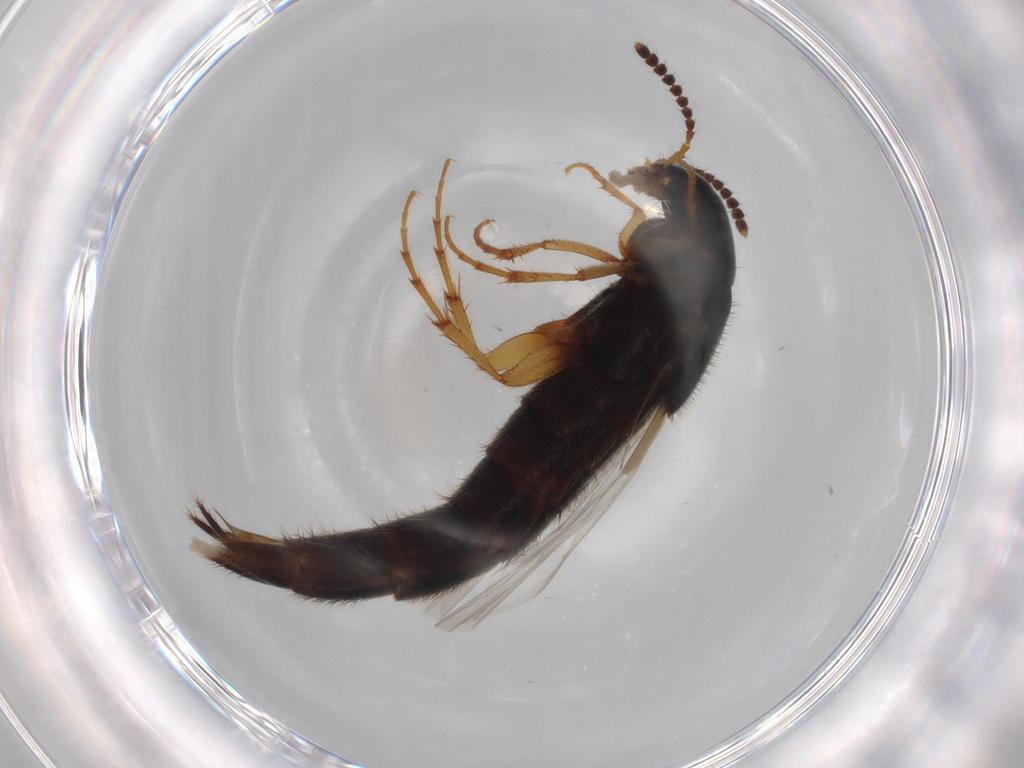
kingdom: Animalia
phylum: Arthropoda
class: Insecta
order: Coleoptera
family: Staphylinidae
